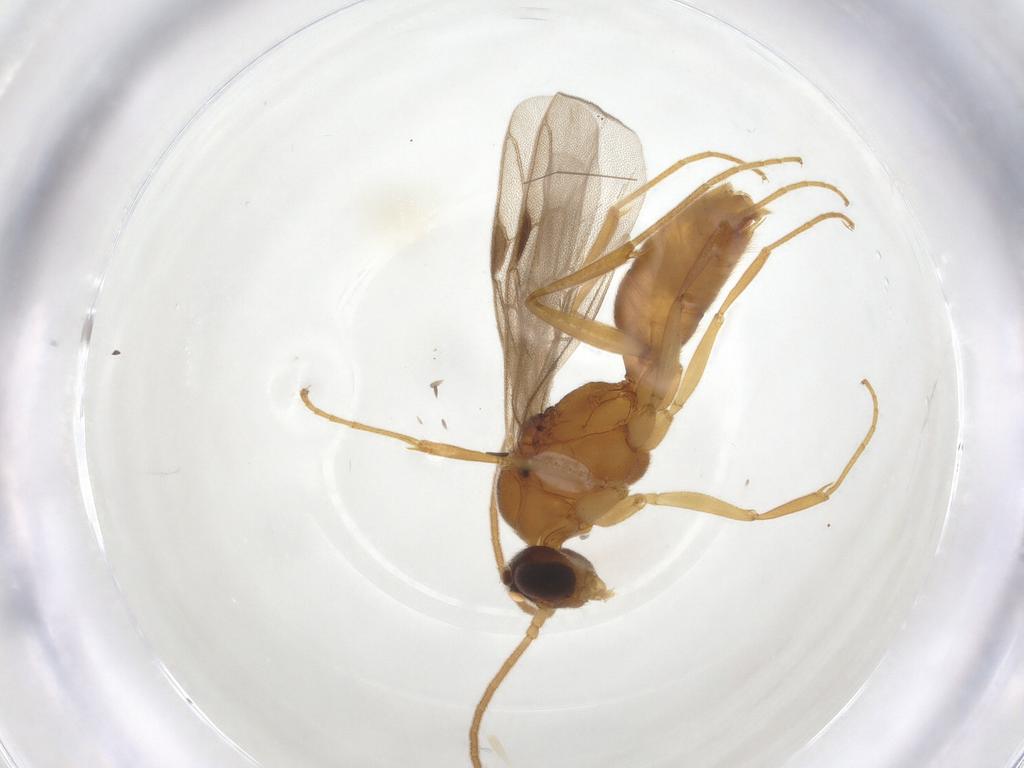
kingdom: Animalia
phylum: Arthropoda
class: Insecta
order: Hymenoptera
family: Formicidae
